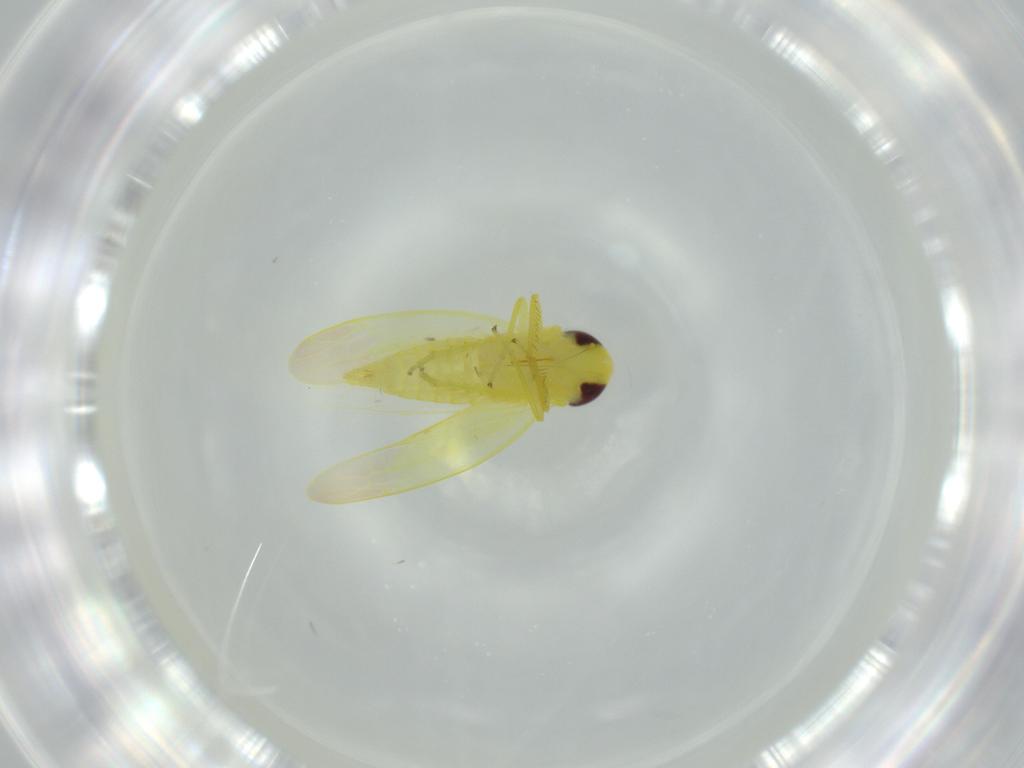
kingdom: Animalia
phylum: Arthropoda
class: Insecta
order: Hemiptera
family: Cicadellidae
